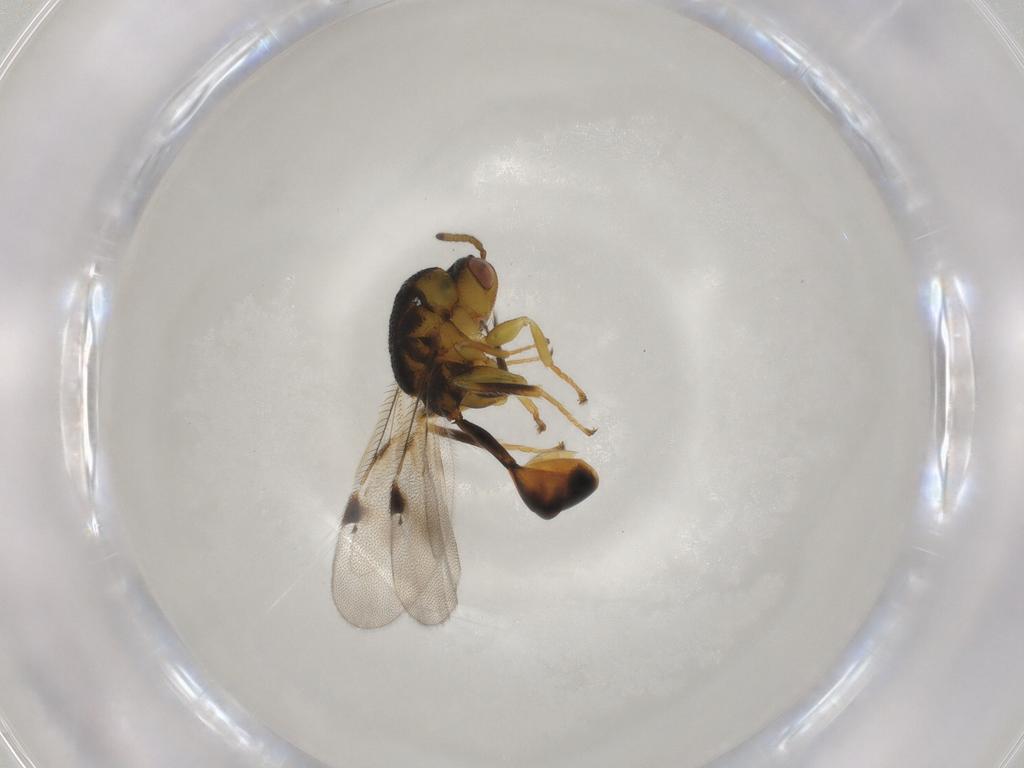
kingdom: Animalia
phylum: Arthropoda
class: Insecta
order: Hymenoptera
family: Eurytomidae
